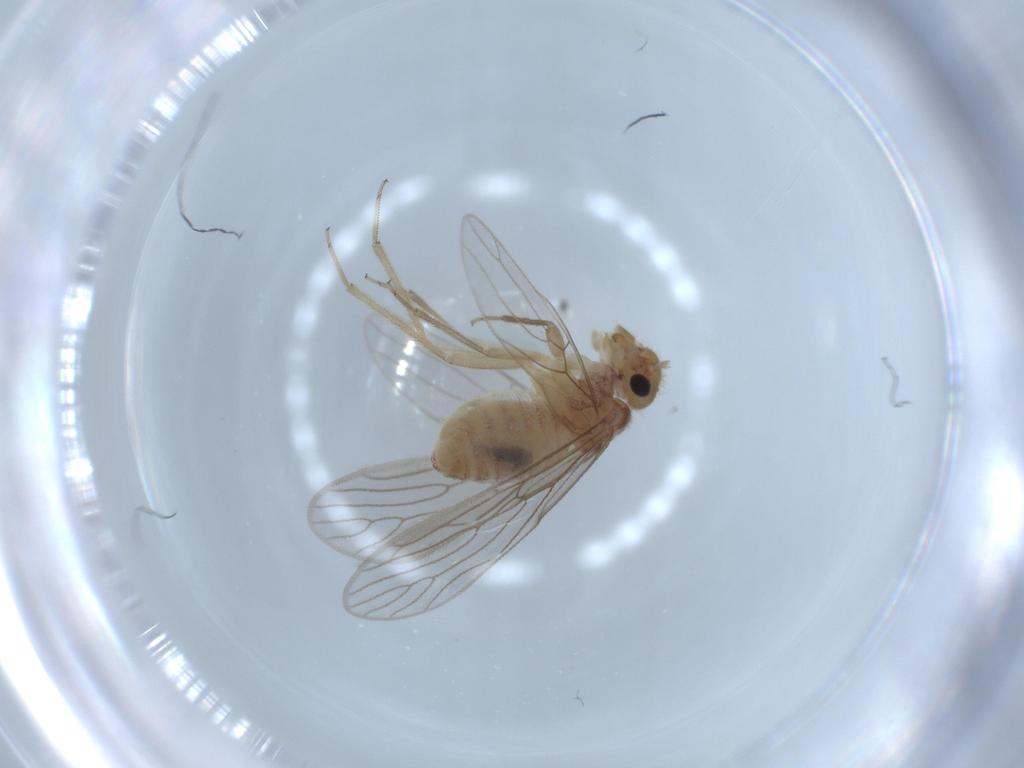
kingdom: Animalia
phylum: Arthropoda
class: Insecta
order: Psocodea
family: Cladiopsocidae
